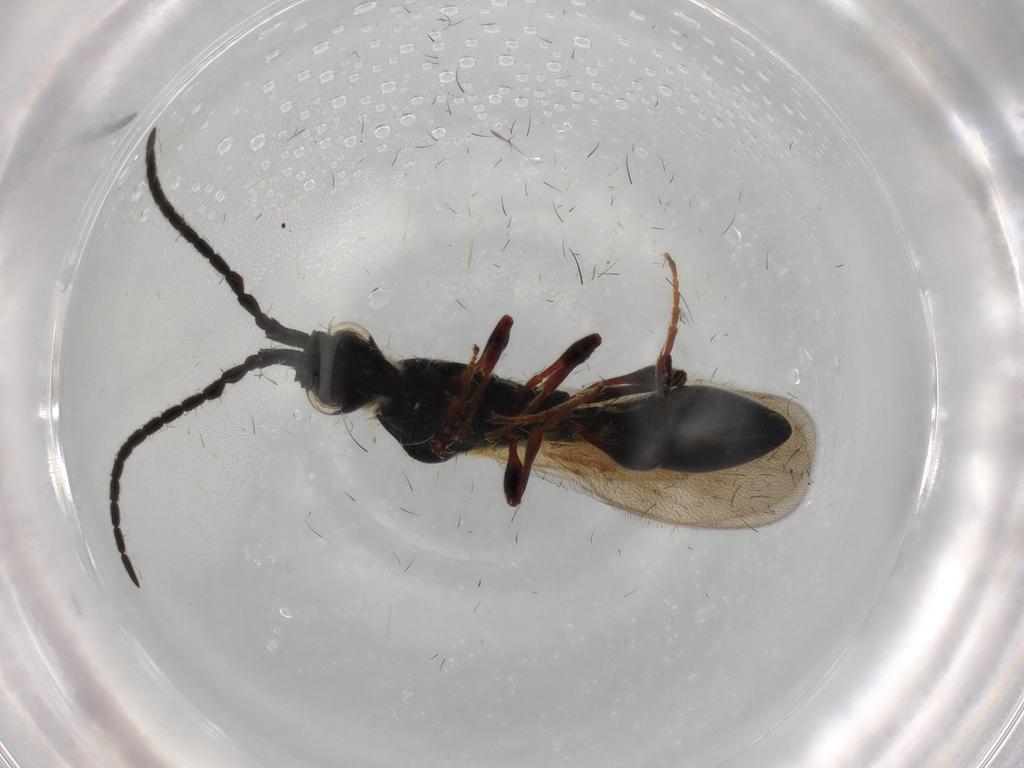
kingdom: Animalia
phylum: Arthropoda
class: Insecta
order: Hymenoptera
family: Diapriidae
